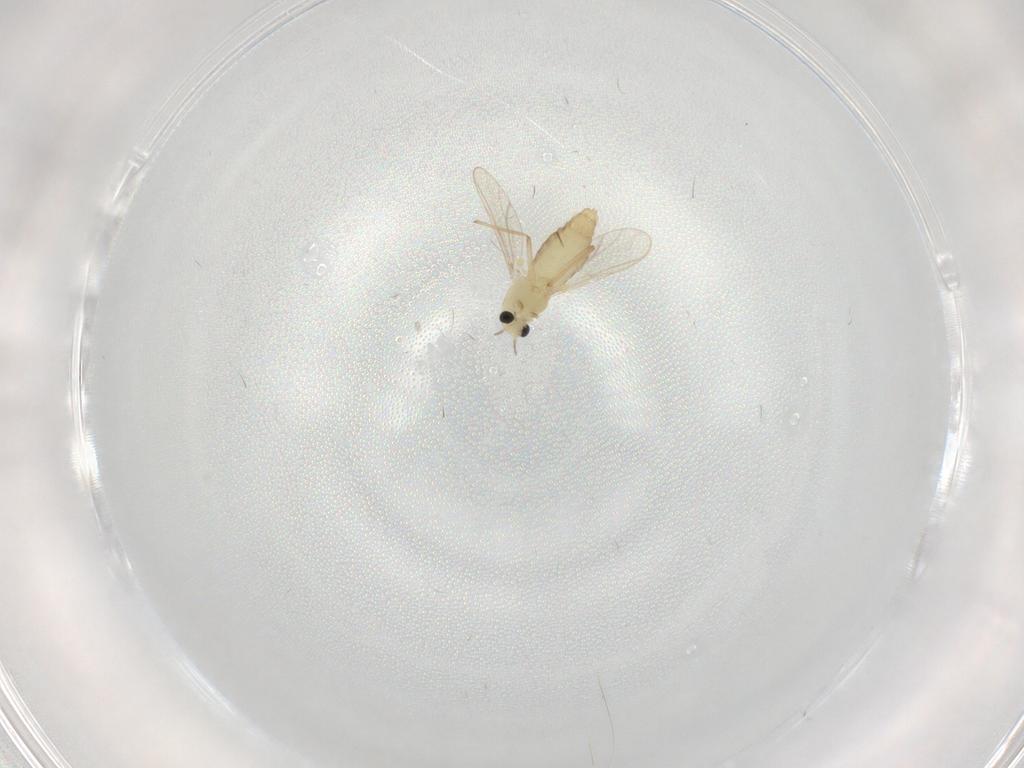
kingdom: Animalia
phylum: Arthropoda
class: Insecta
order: Diptera
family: Chironomidae
